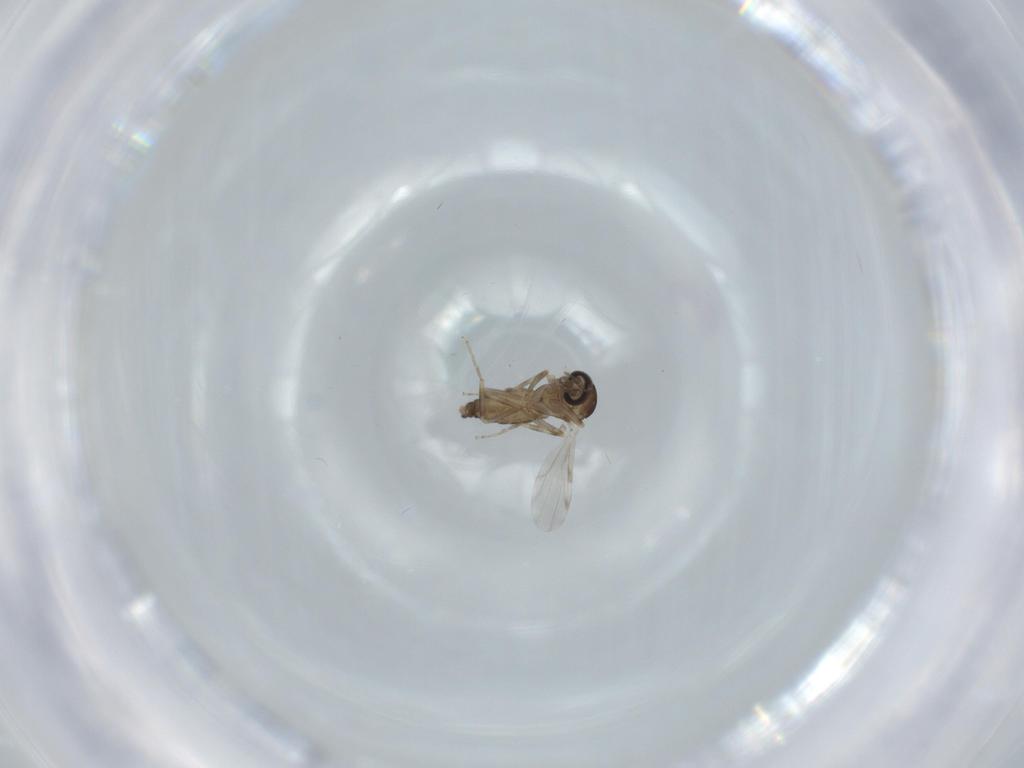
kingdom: Animalia
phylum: Arthropoda
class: Insecta
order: Diptera
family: Ceratopogonidae
